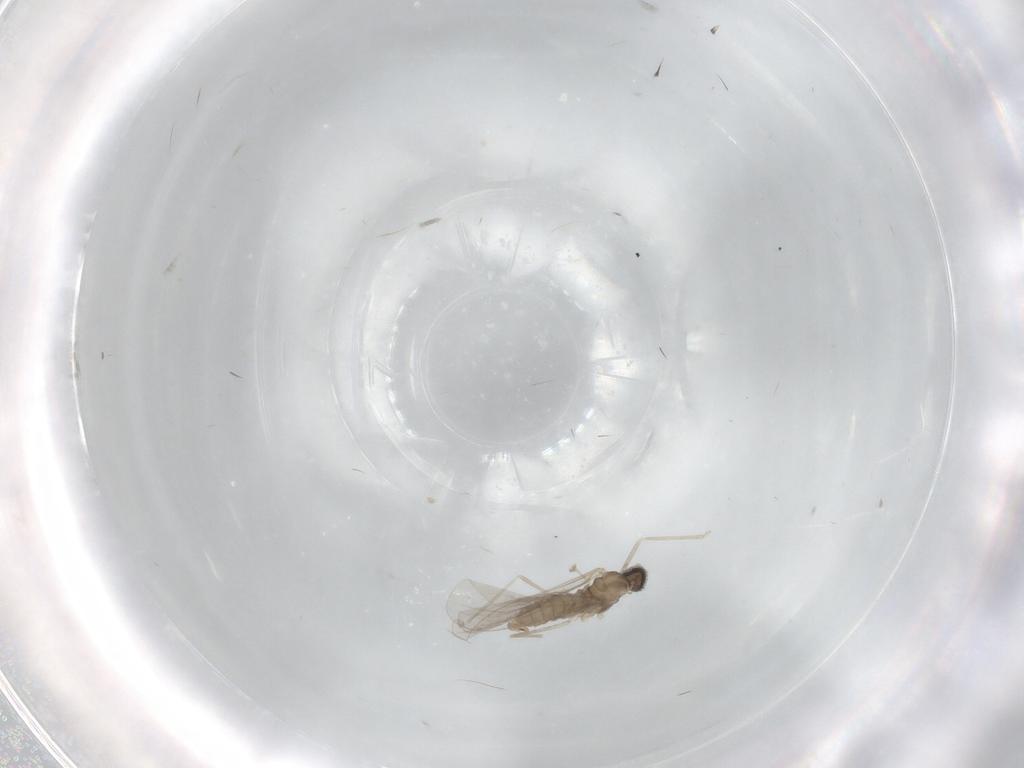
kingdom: Animalia
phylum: Arthropoda
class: Insecta
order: Diptera
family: Cecidomyiidae
